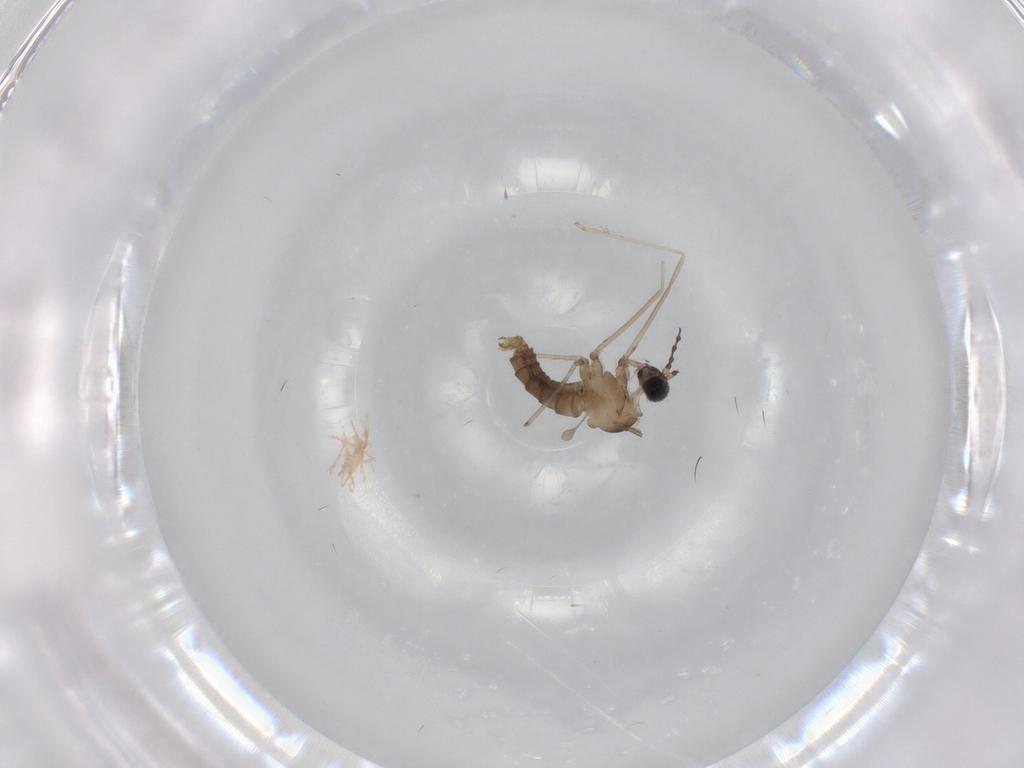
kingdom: Animalia
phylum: Arthropoda
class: Insecta
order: Diptera
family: Cecidomyiidae
